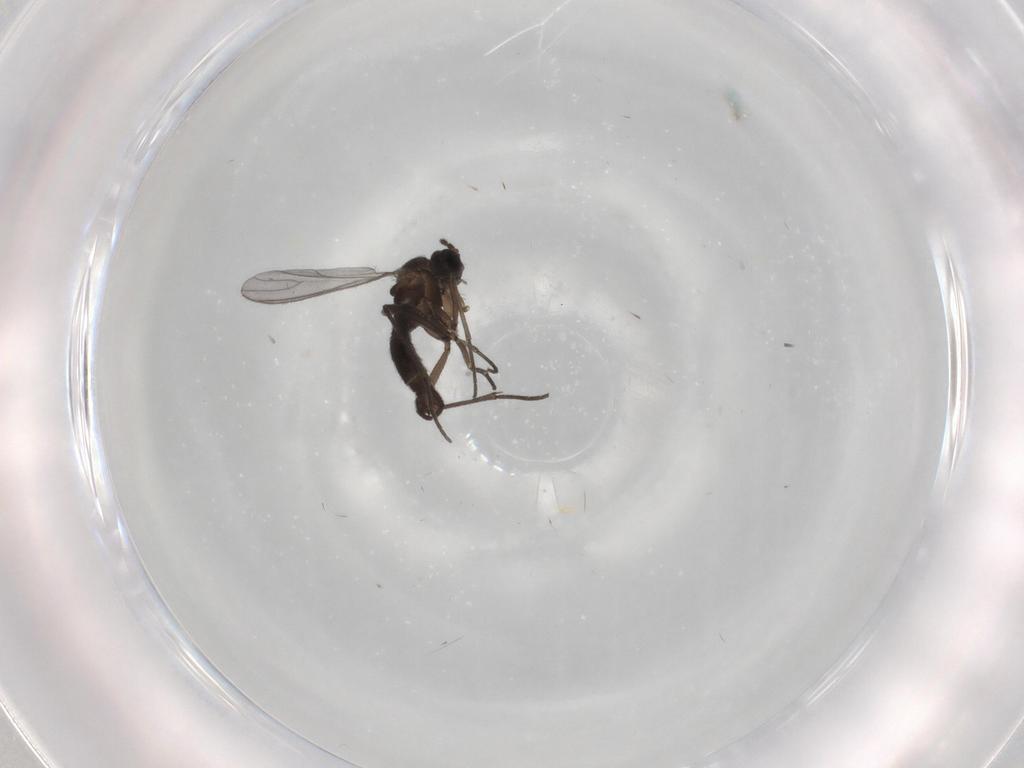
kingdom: Animalia
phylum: Arthropoda
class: Insecta
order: Diptera
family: Sciaridae
